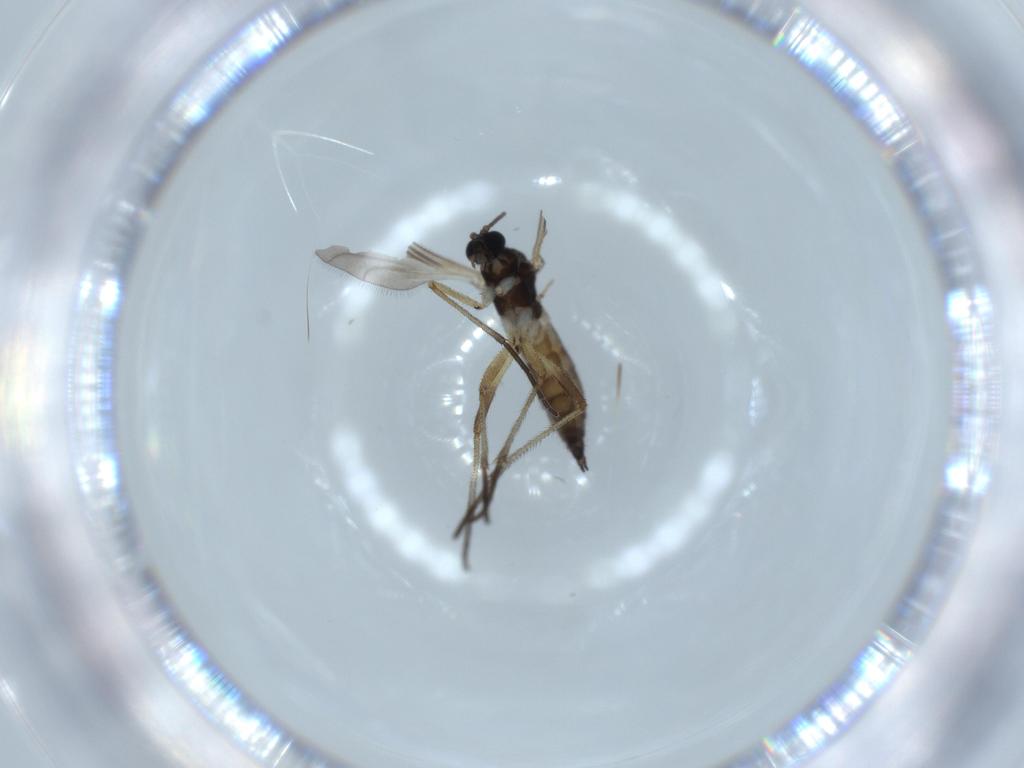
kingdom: Animalia
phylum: Arthropoda
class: Insecta
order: Diptera
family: Sciaridae
